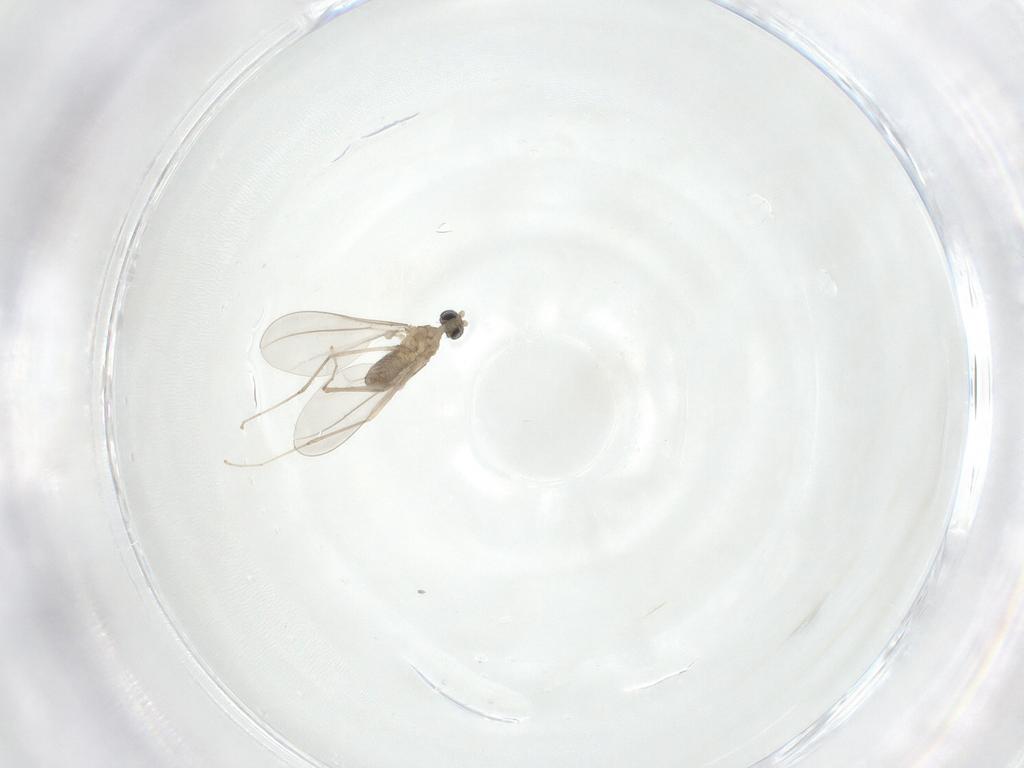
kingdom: Animalia
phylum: Arthropoda
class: Insecta
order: Diptera
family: Cecidomyiidae
